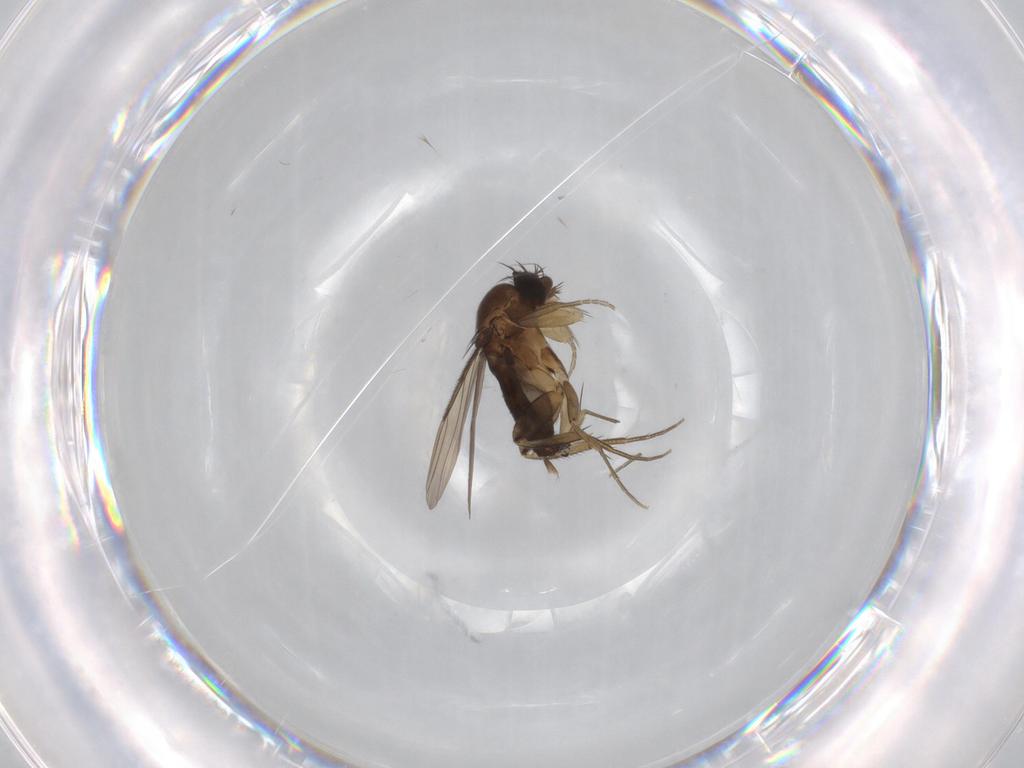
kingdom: Animalia
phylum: Arthropoda
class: Insecta
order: Diptera
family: Phoridae
